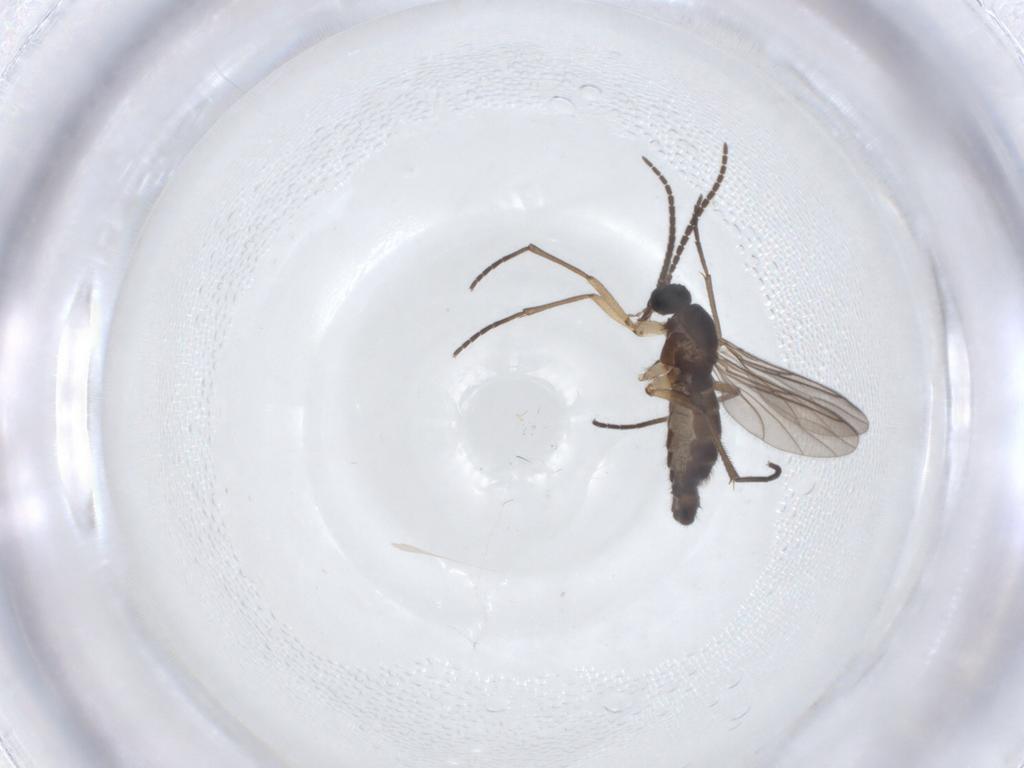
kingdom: Animalia
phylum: Arthropoda
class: Insecta
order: Diptera
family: Sciaridae
